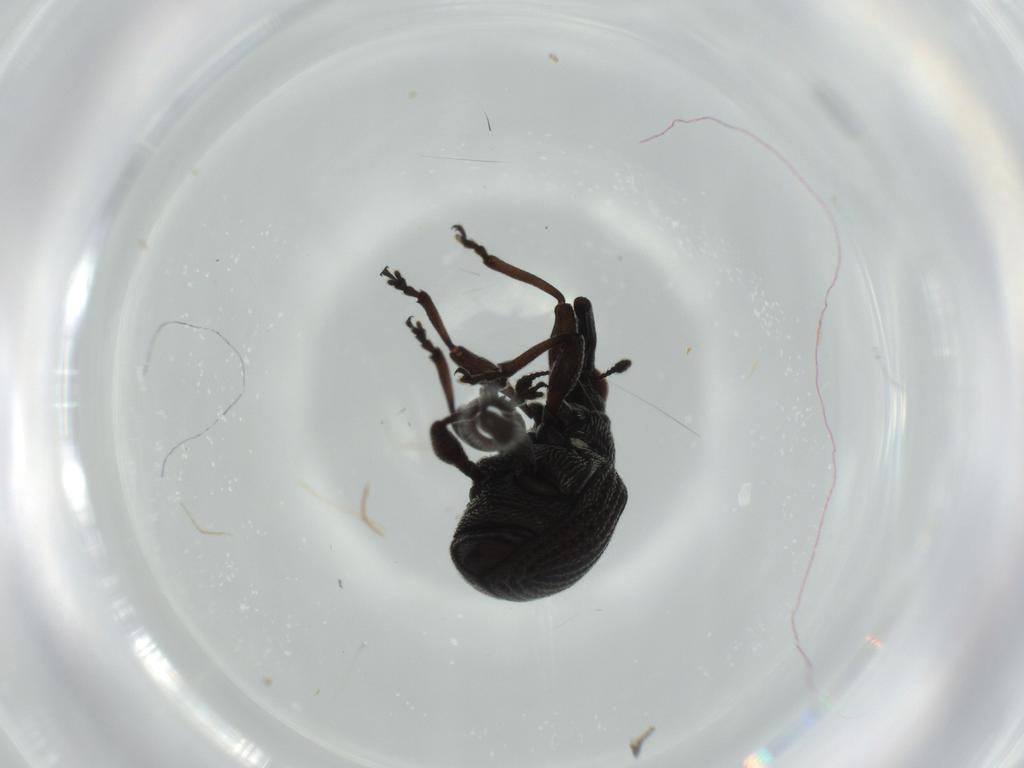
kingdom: Animalia
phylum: Arthropoda
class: Insecta
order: Coleoptera
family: Brentidae
